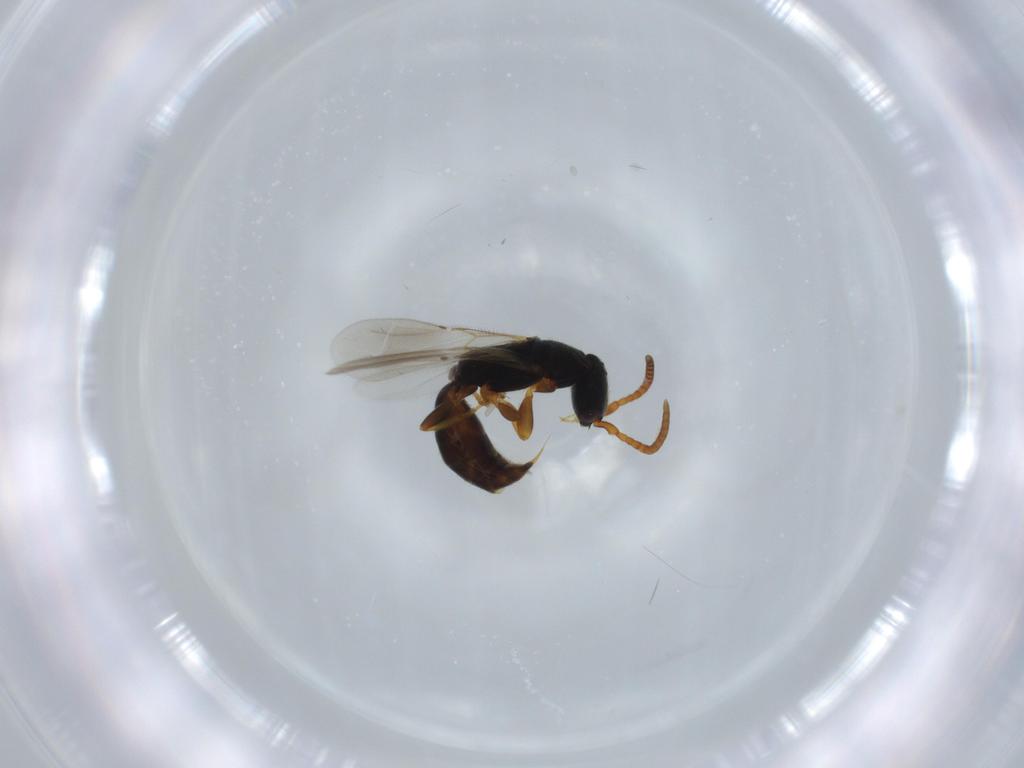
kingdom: Animalia
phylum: Arthropoda
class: Insecta
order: Hymenoptera
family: Bethylidae
